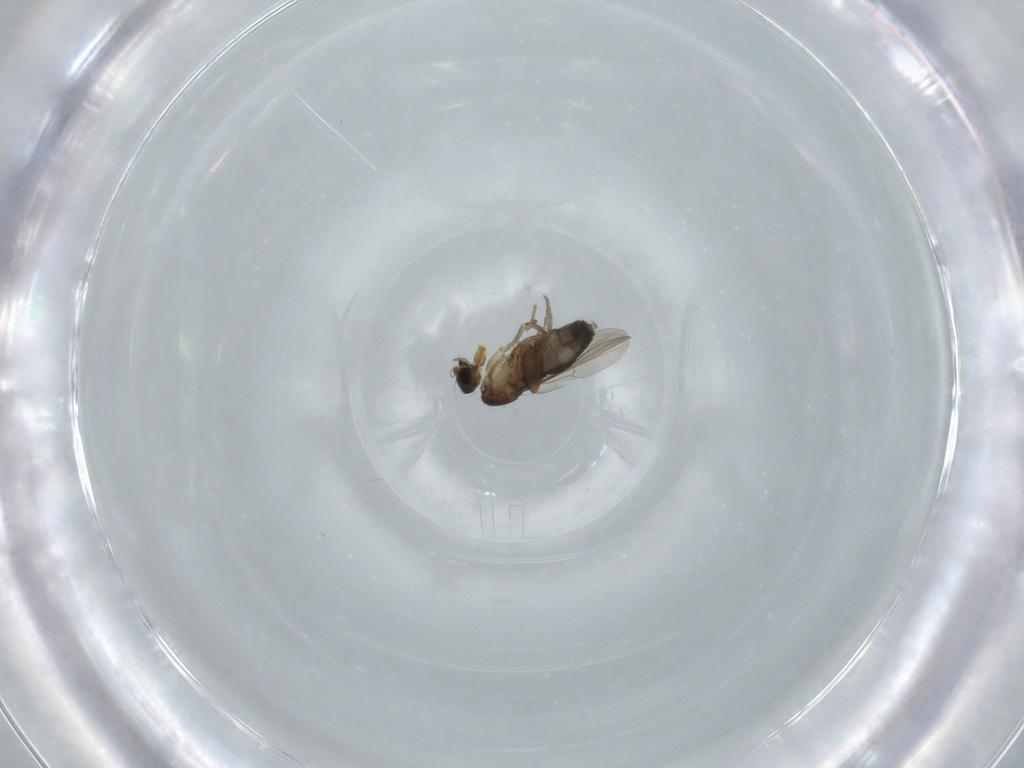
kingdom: Animalia
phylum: Arthropoda
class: Insecta
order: Diptera
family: Phoridae
